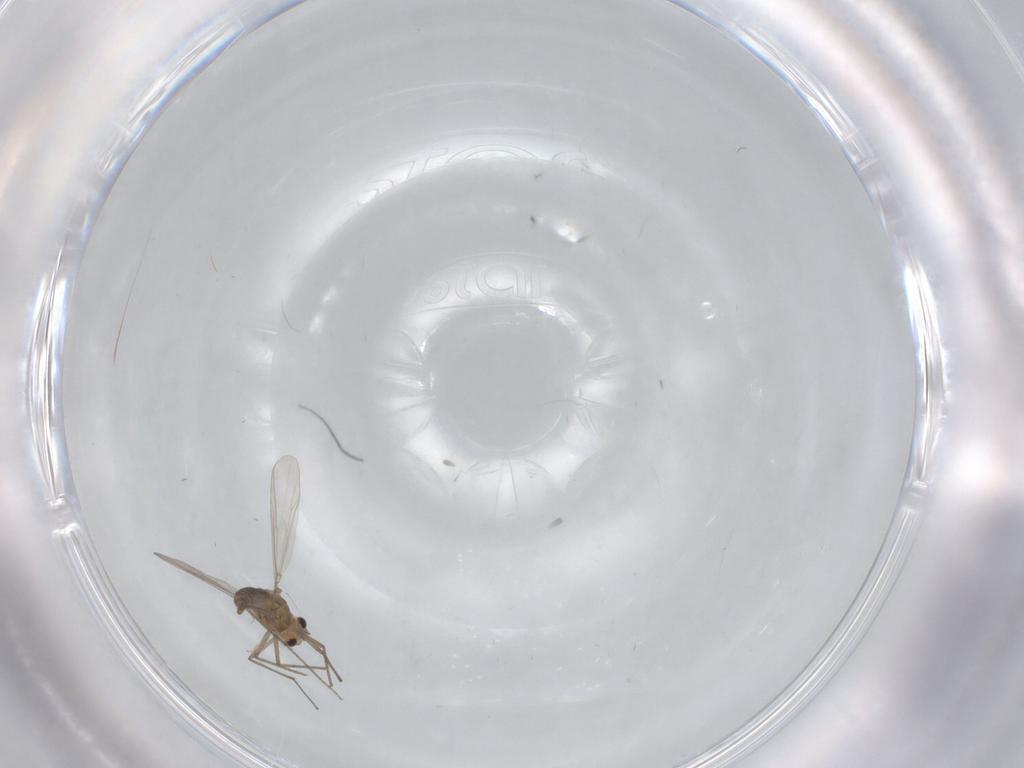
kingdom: Animalia
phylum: Arthropoda
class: Insecta
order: Diptera
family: Chironomidae
